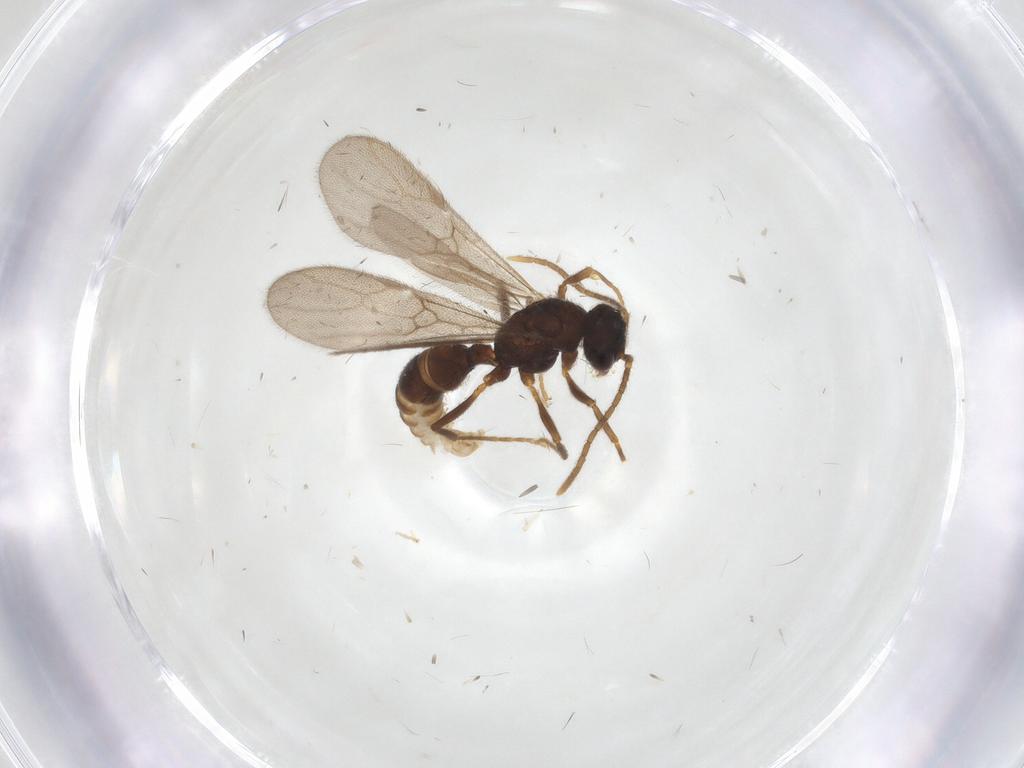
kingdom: Animalia
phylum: Arthropoda
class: Insecta
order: Hymenoptera
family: Formicidae
